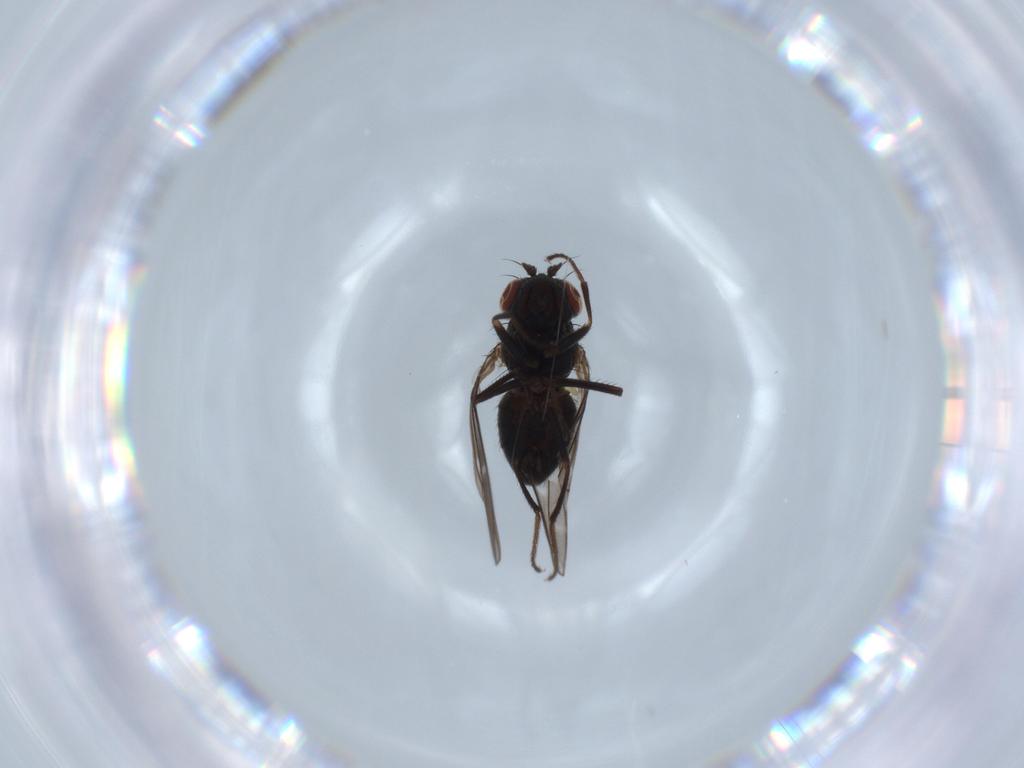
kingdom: Animalia
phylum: Arthropoda
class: Insecta
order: Diptera
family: Ephydridae
